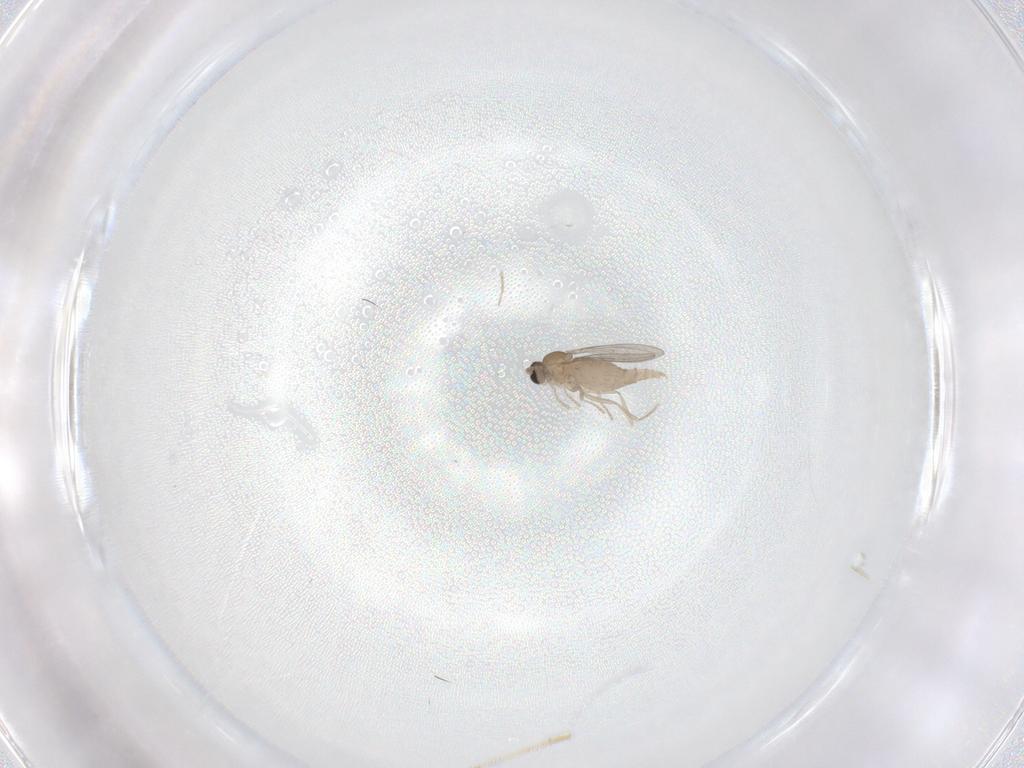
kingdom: Animalia
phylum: Arthropoda
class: Insecta
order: Diptera
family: Cecidomyiidae
